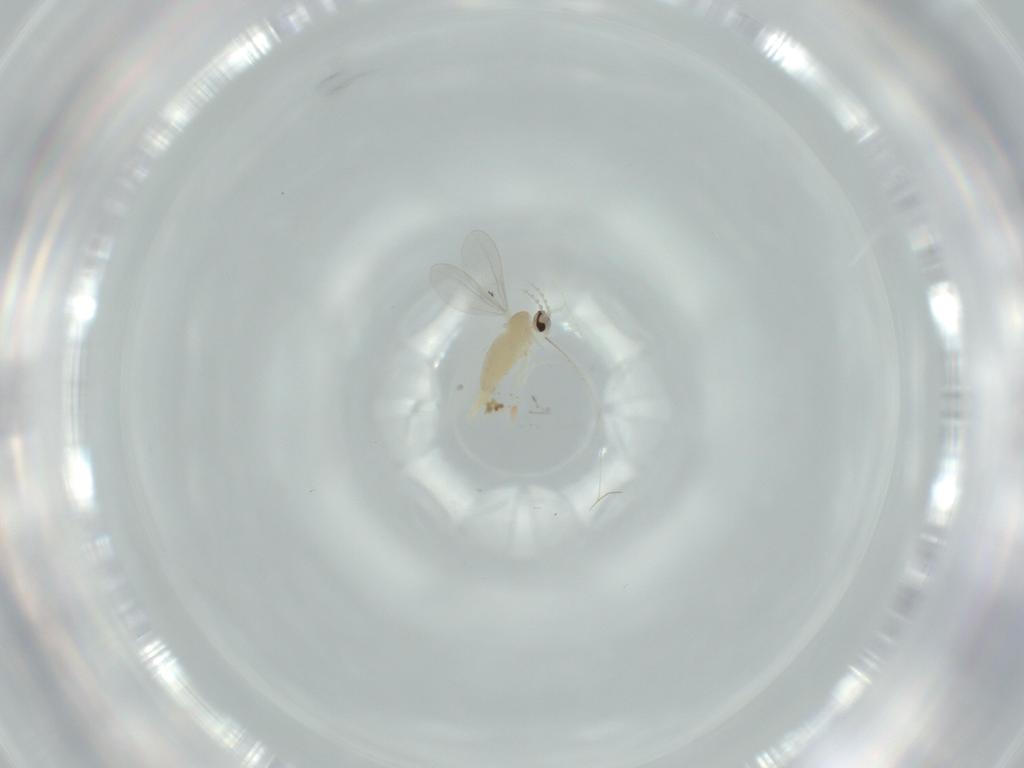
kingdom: Animalia
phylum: Arthropoda
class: Insecta
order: Diptera
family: Cecidomyiidae
